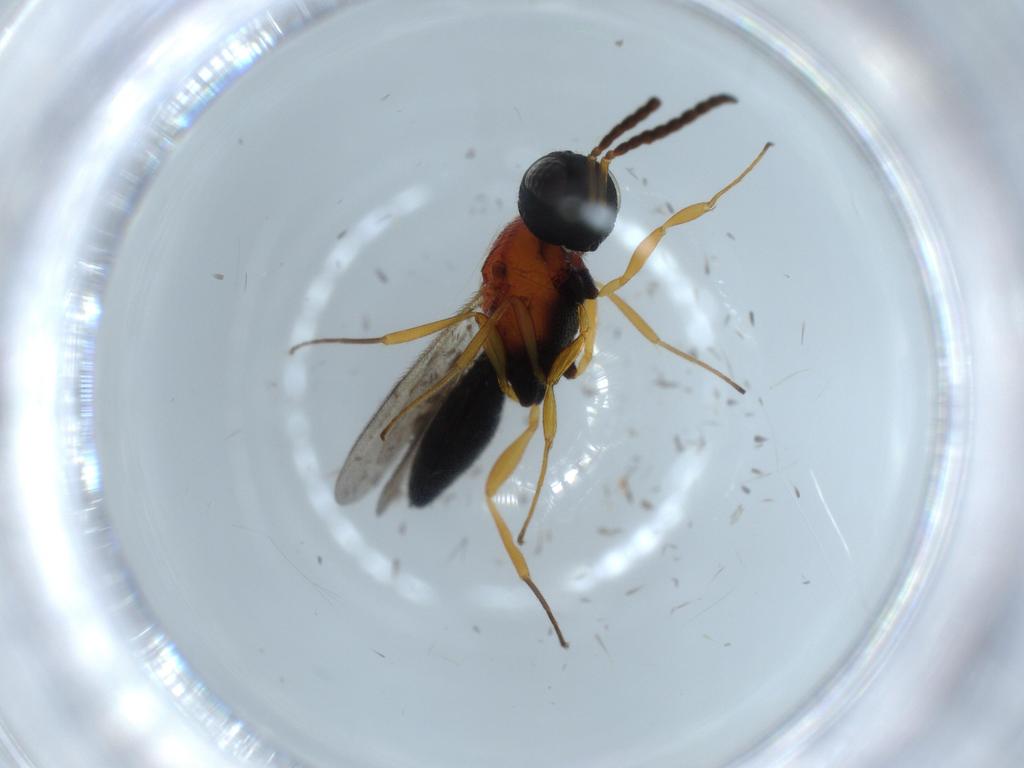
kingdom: Animalia
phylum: Arthropoda
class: Insecta
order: Hymenoptera
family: Scelionidae
